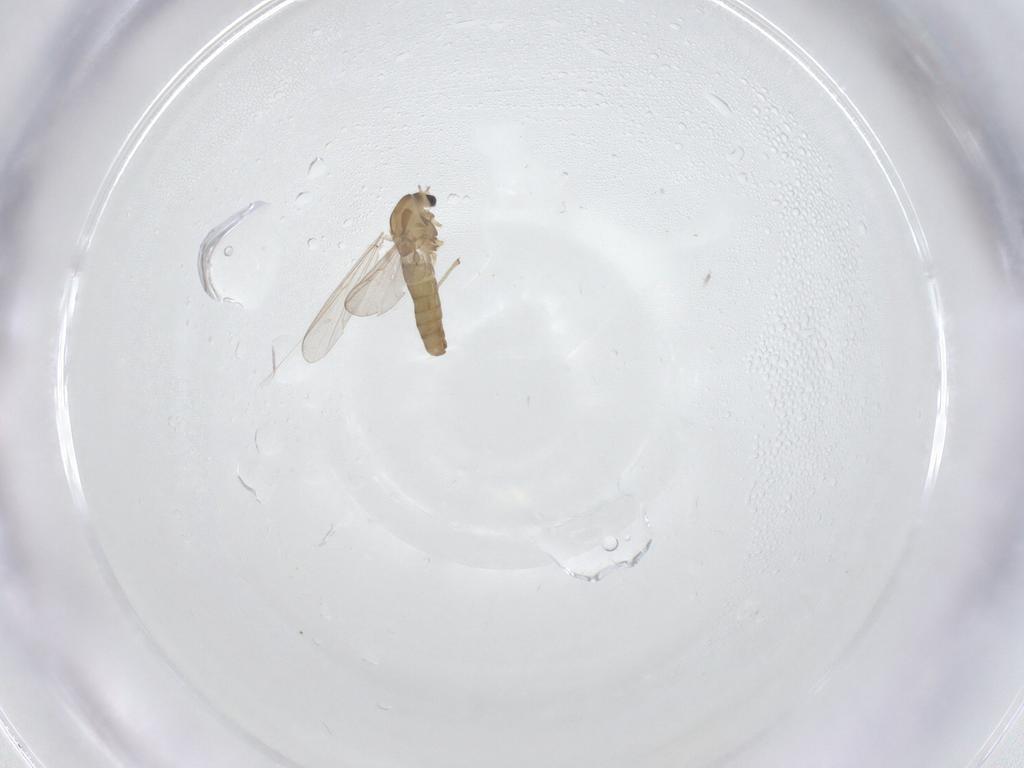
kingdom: Animalia
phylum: Arthropoda
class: Insecta
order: Diptera
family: Chironomidae
